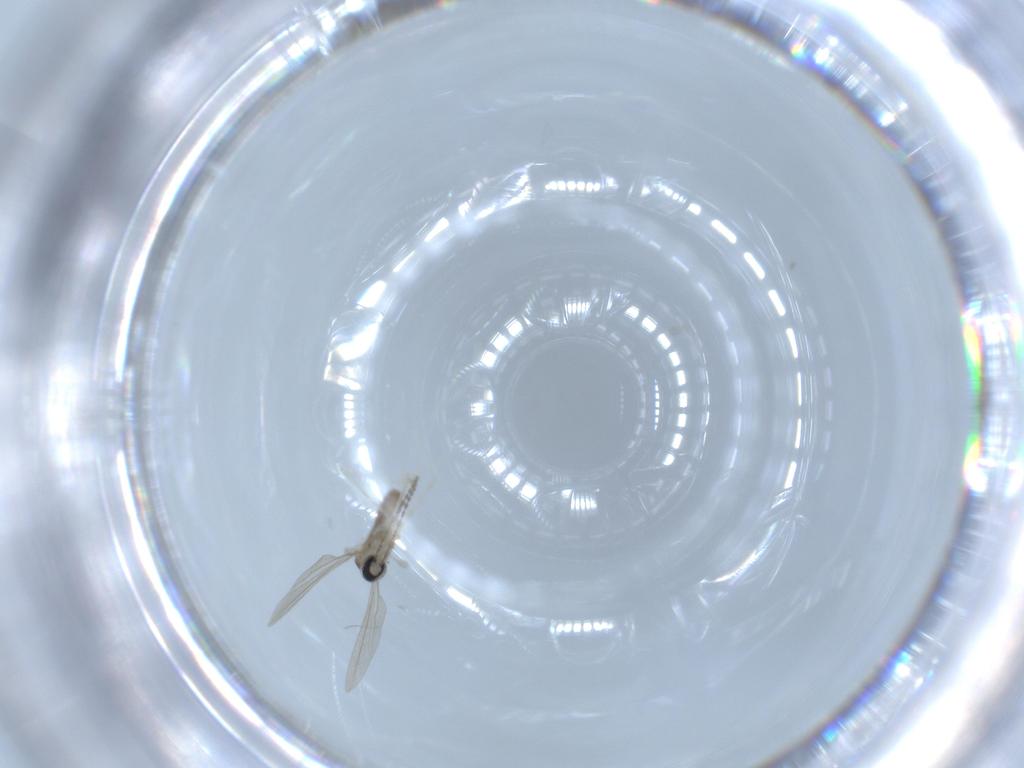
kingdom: Animalia
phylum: Arthropoda
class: Insecta
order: Diptera
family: Cecidomyiidae
